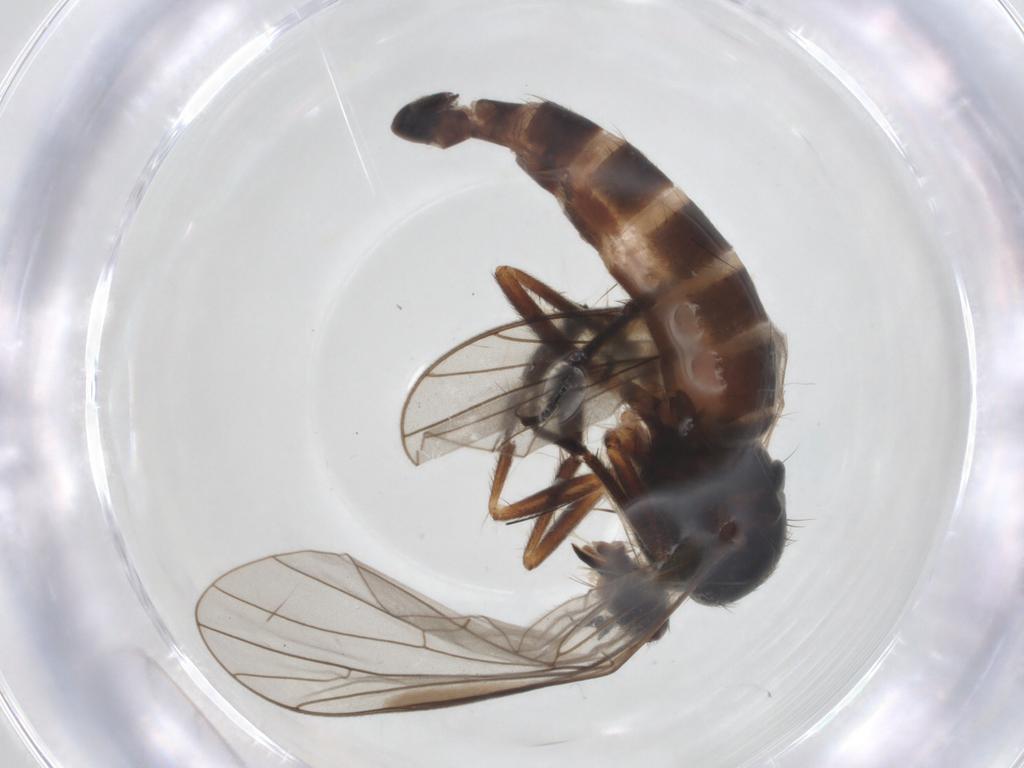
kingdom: Animalia
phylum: Arthropoda
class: Insecta
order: Diptera
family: Empididae
